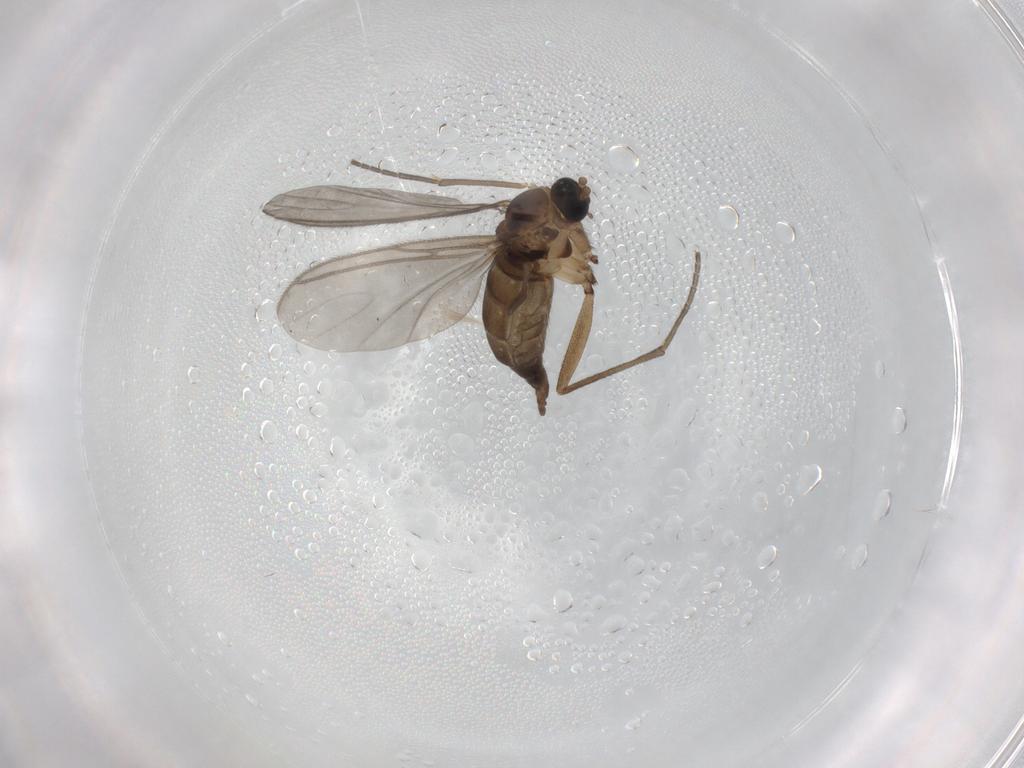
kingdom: Animalia
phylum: Arthropoda
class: Insecta
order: Diptera
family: Sciaridae
